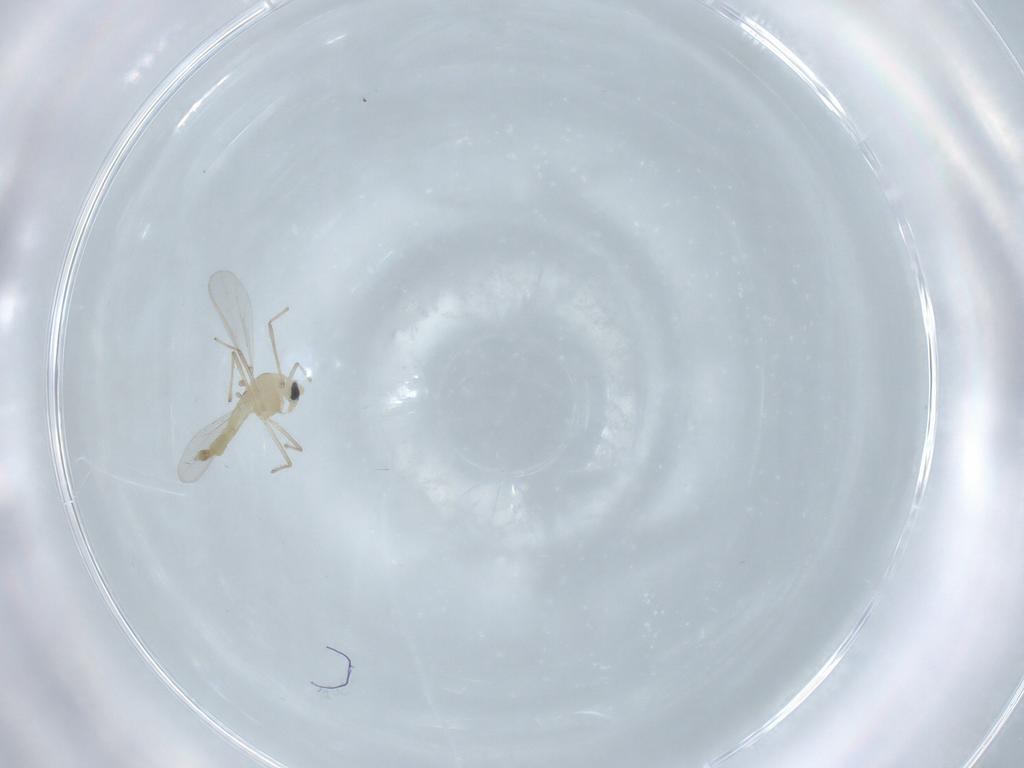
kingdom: Animalia
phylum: Arthropoda
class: Insecta
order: Diptera
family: Chironomidae
